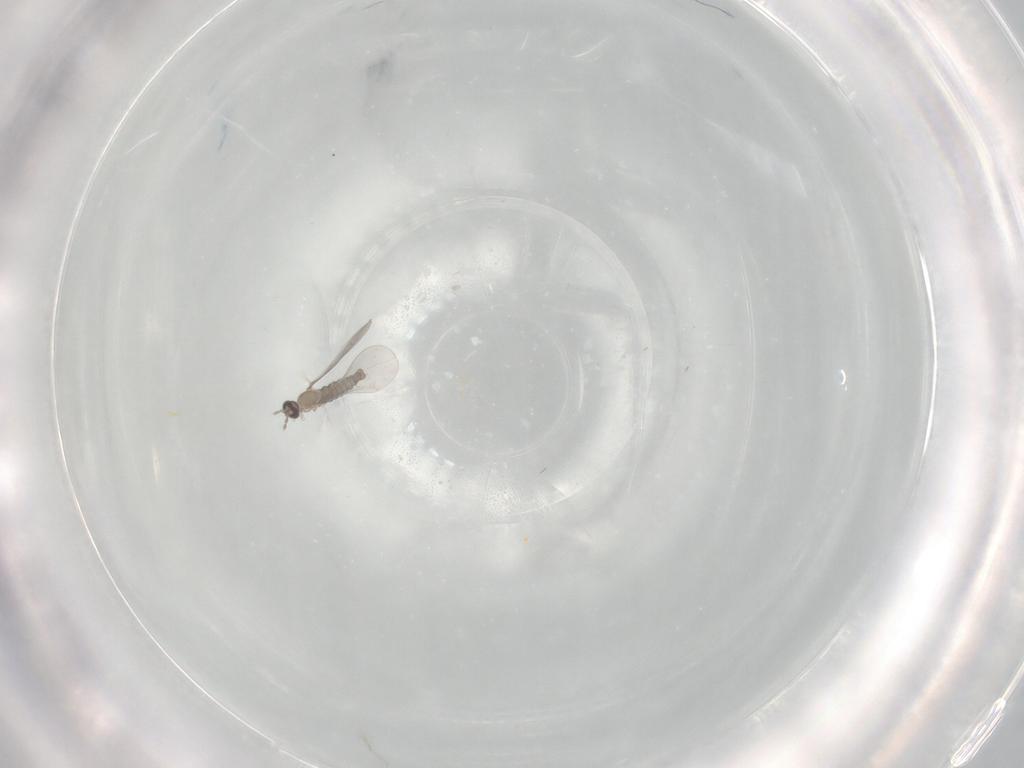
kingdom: Animalia
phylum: Arthropoda
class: Insecta
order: Diptera
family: Cecidomyiidae
